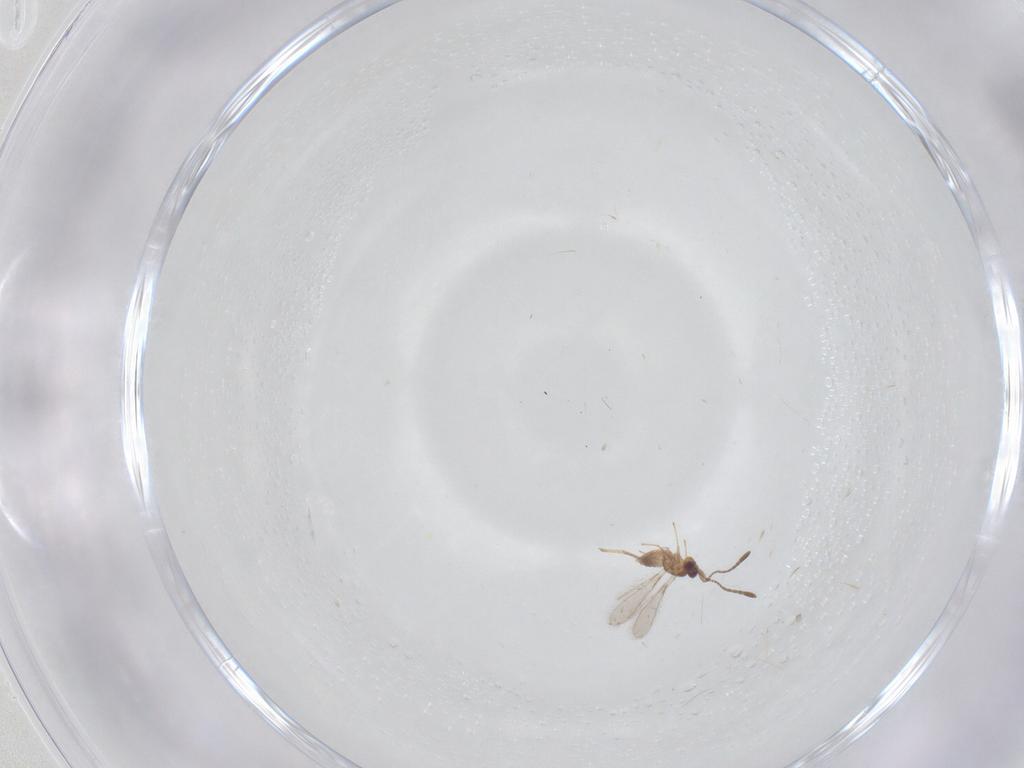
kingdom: Animalia
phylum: Arthropoda
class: Insecta
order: Hymenoptera
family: Mymaridae
